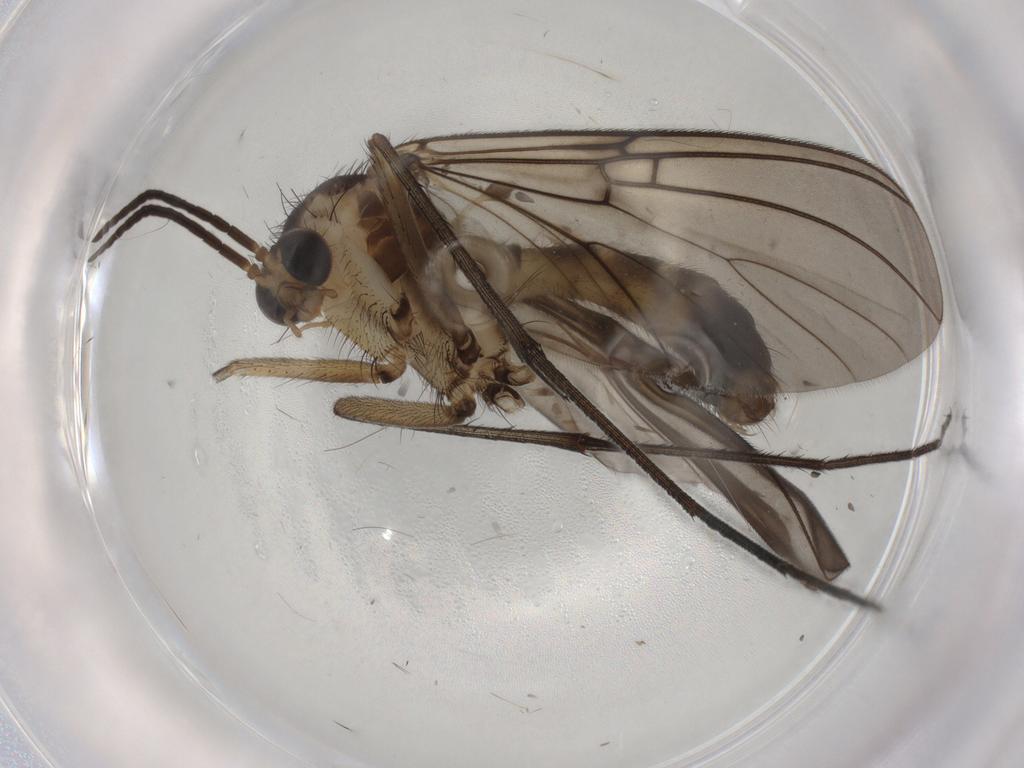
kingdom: Animalia
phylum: Arthropoda
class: Insecta
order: Diptera
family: Mycetophilidae
